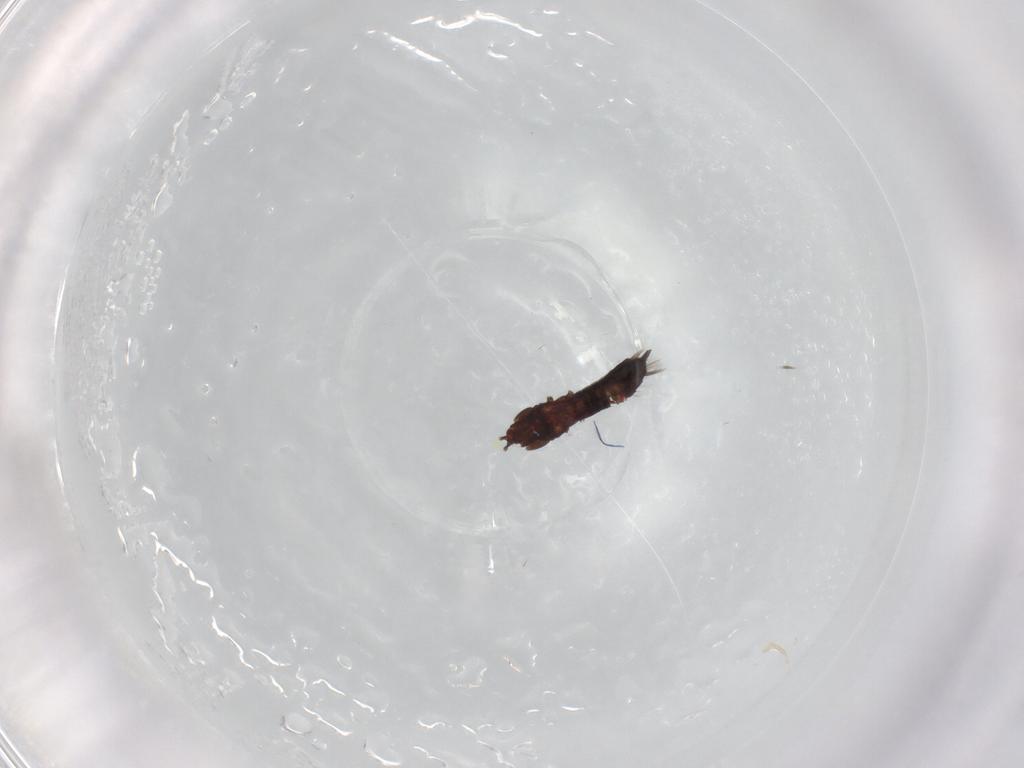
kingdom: Animalia
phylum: Arthropoda
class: Insecta
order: Thysanoptera
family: Phlaeothripidae
